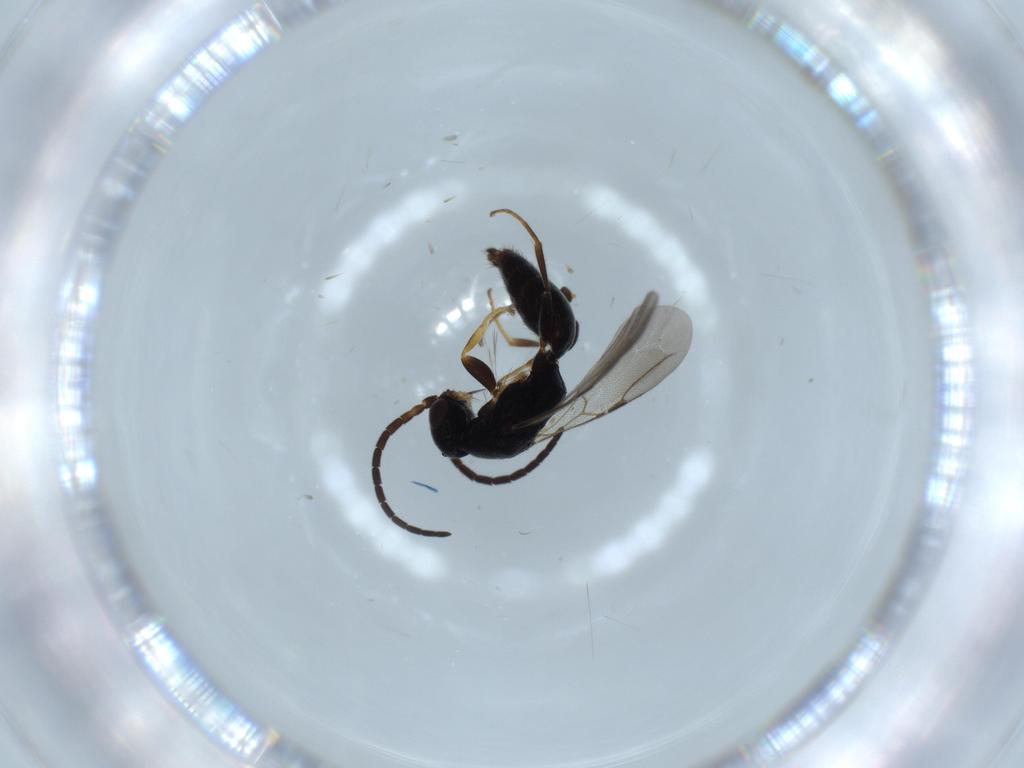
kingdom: Animalia
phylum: Arthropoda
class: Insecta
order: Hymenoptera
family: Bethylidae
